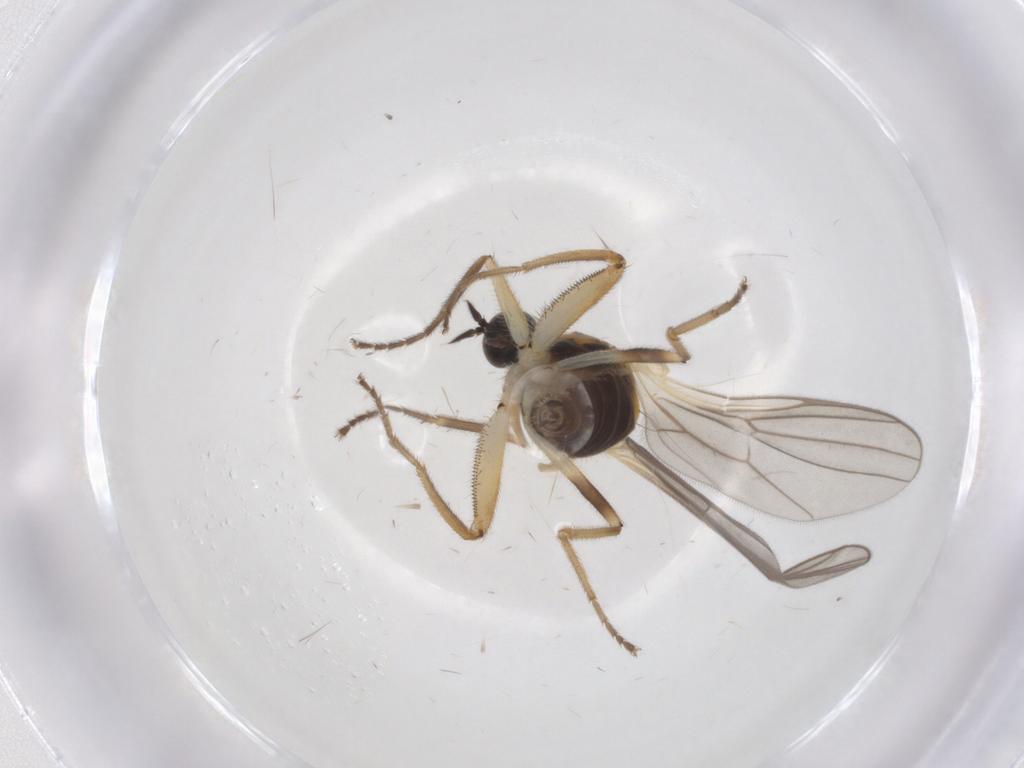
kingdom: Animalia
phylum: Arthropoda
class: Insecta
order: Diptera
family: Hybotidae
